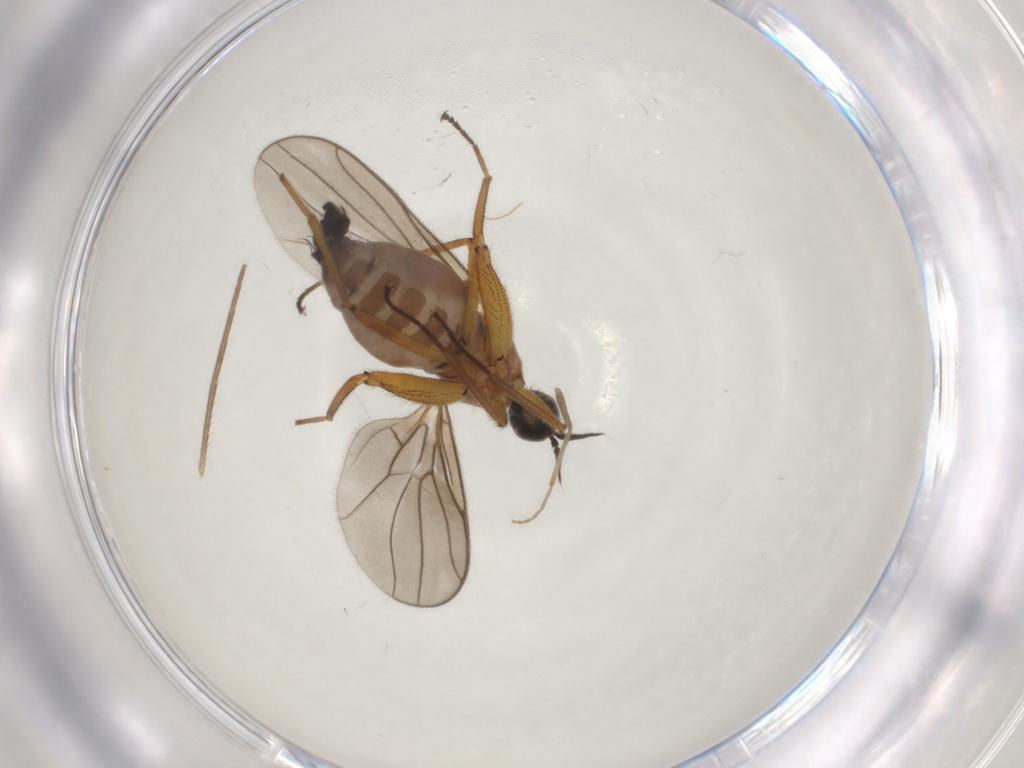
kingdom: Animalia
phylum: Arthropoda
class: Insecta
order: Diptera
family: Hybotidae
